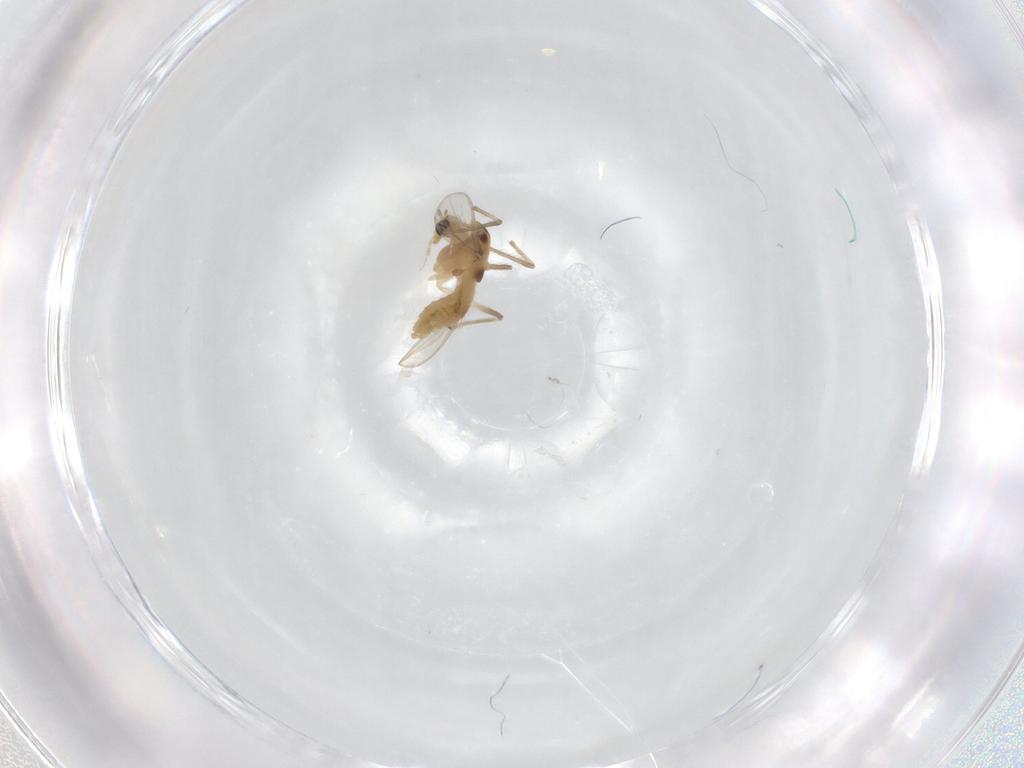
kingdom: Animalia
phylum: Arthropoda
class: Insecta
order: Diptera
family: Chironomidae
